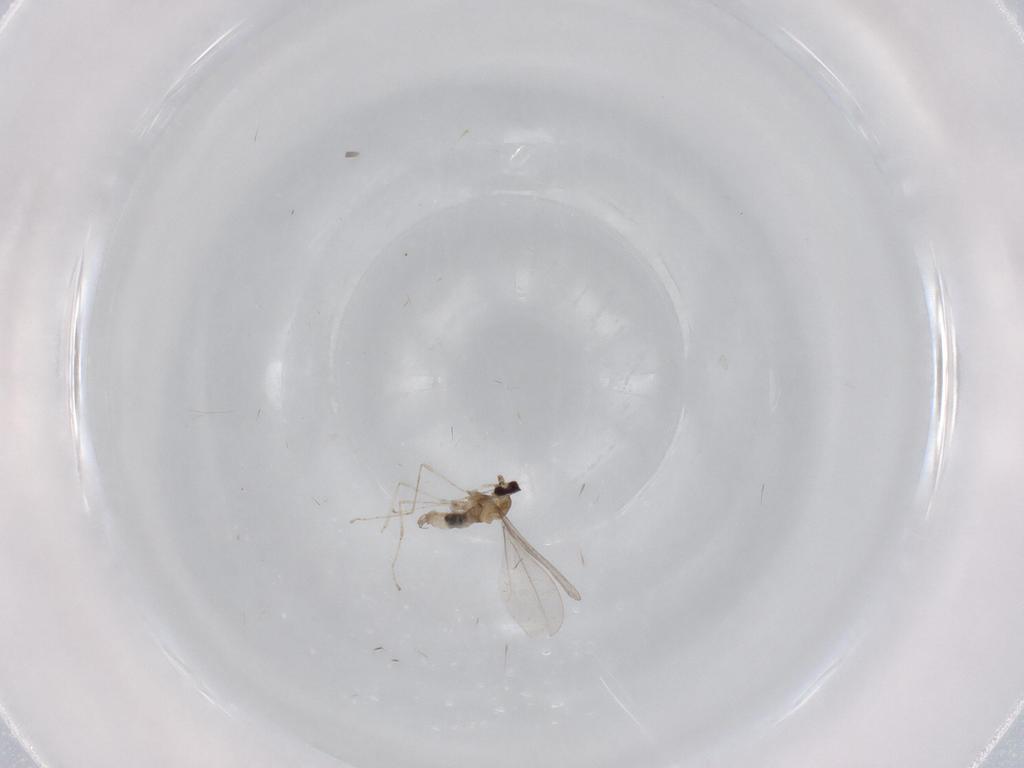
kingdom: Animalia
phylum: Arthropoda
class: Insecta
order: Diptera
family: Cecidomyiidae
